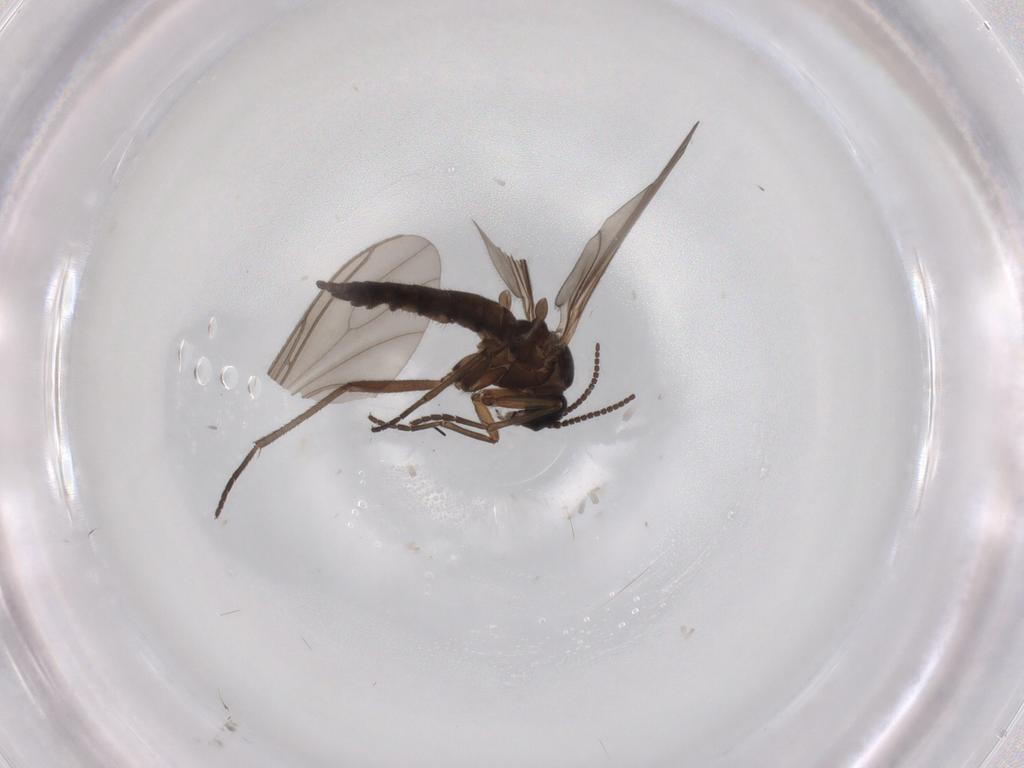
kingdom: Animalia
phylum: Arthropoda
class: Insecta
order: Diptera
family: Sciaridae
